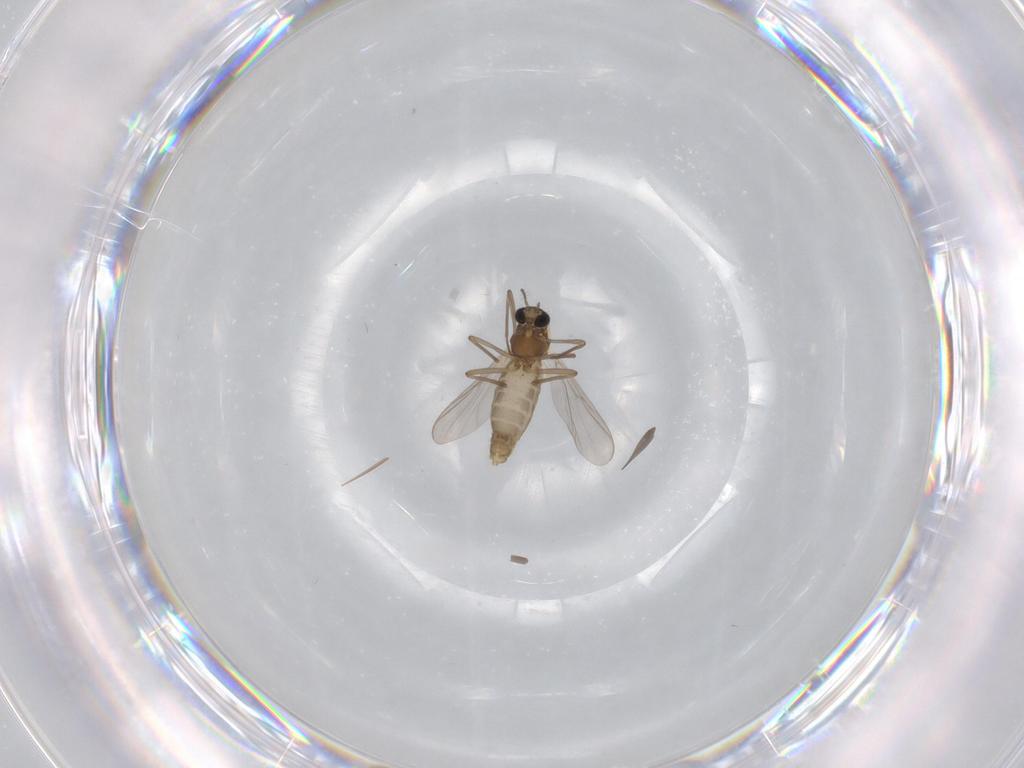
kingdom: Animalia
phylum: Arthropoda
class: Insecta
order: Diptera
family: Chironomidae
